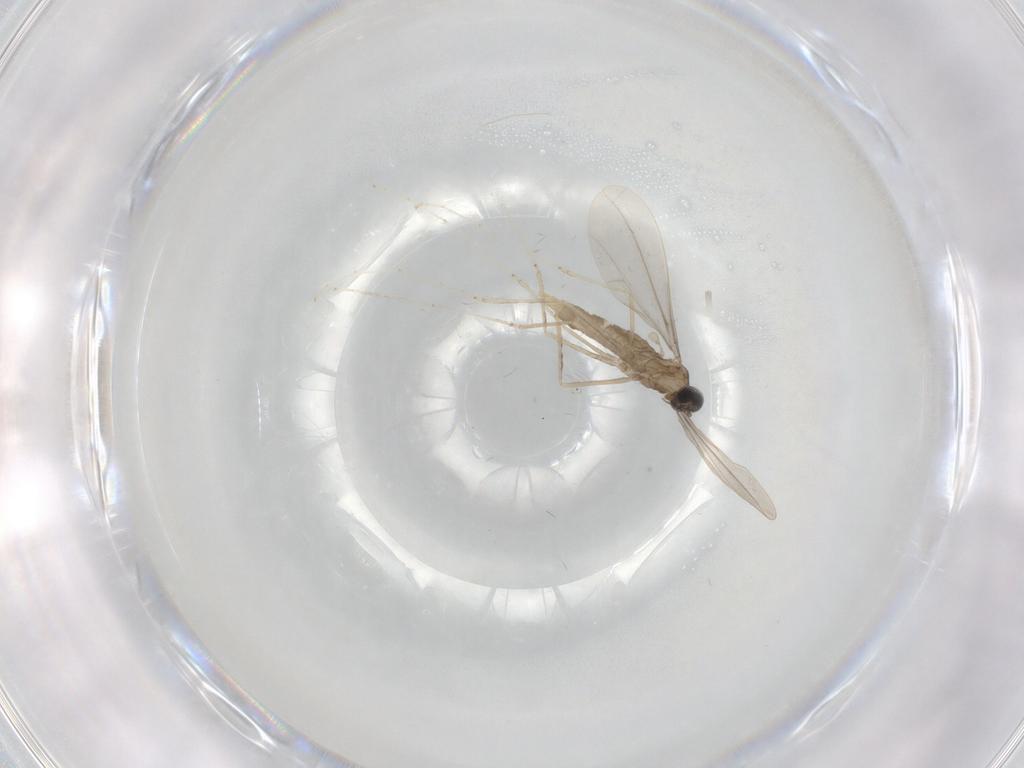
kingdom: Animalia
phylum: Arthropoda
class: Insecta
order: Diptera
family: Cecidomyiidae
